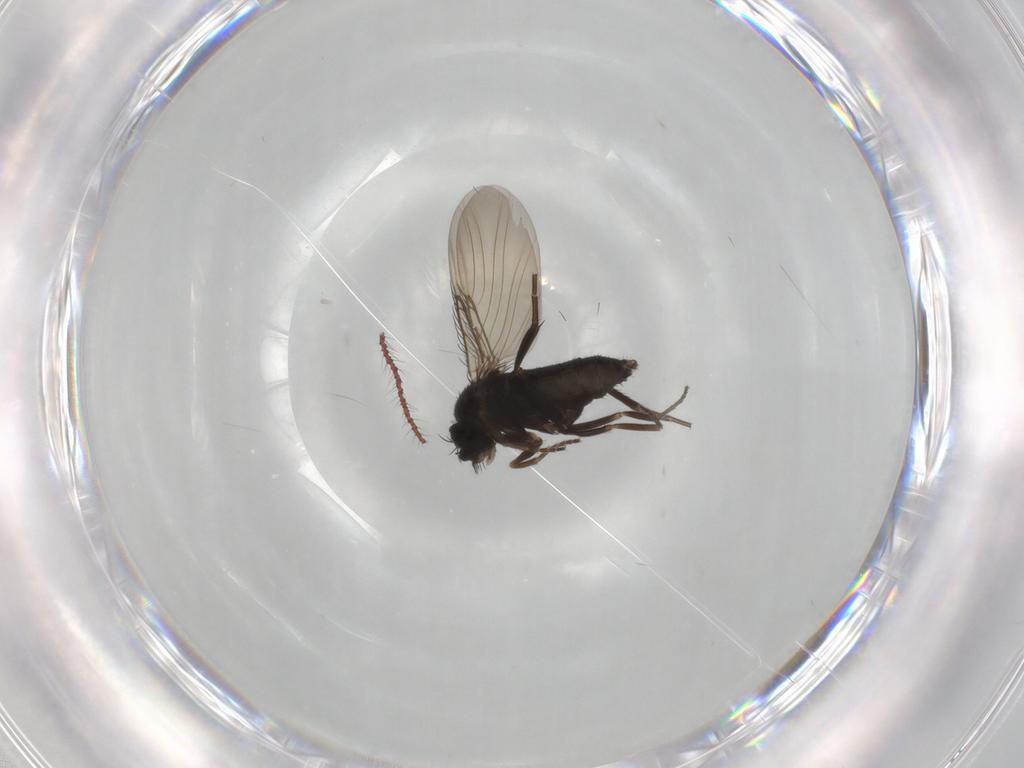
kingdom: Animalia
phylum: Arthropoda
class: Insecta
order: Diptera
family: Phoridae
